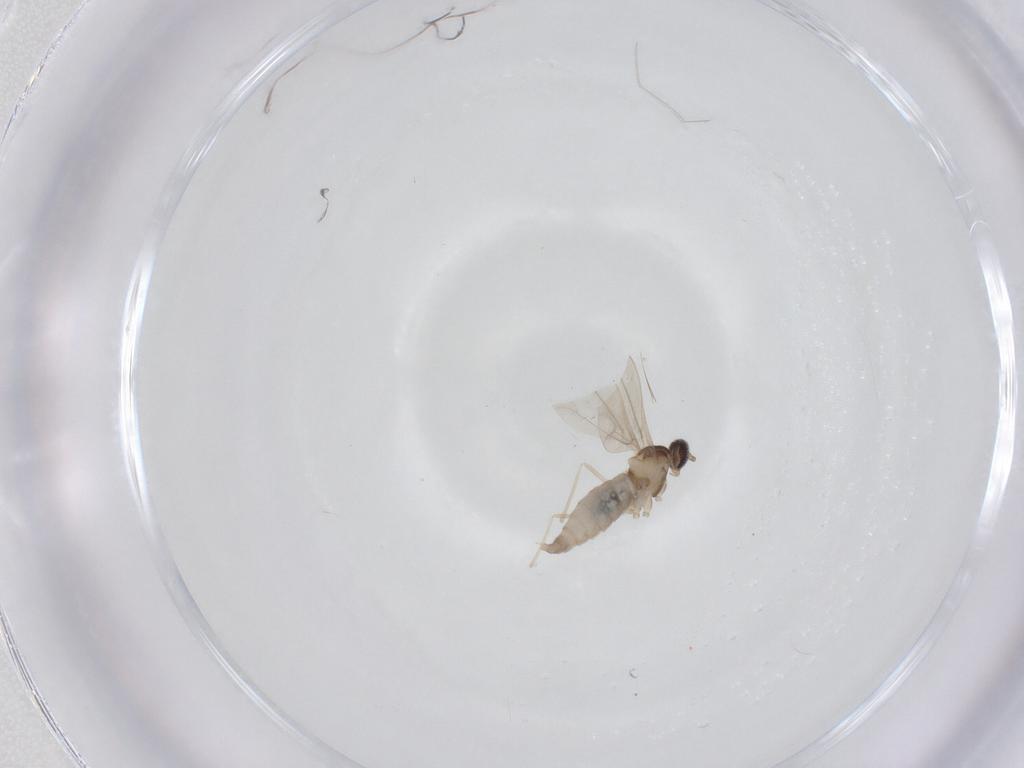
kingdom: Animalia
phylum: Arthropoda
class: Insecta
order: Diptera
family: Cecidomyiidae
